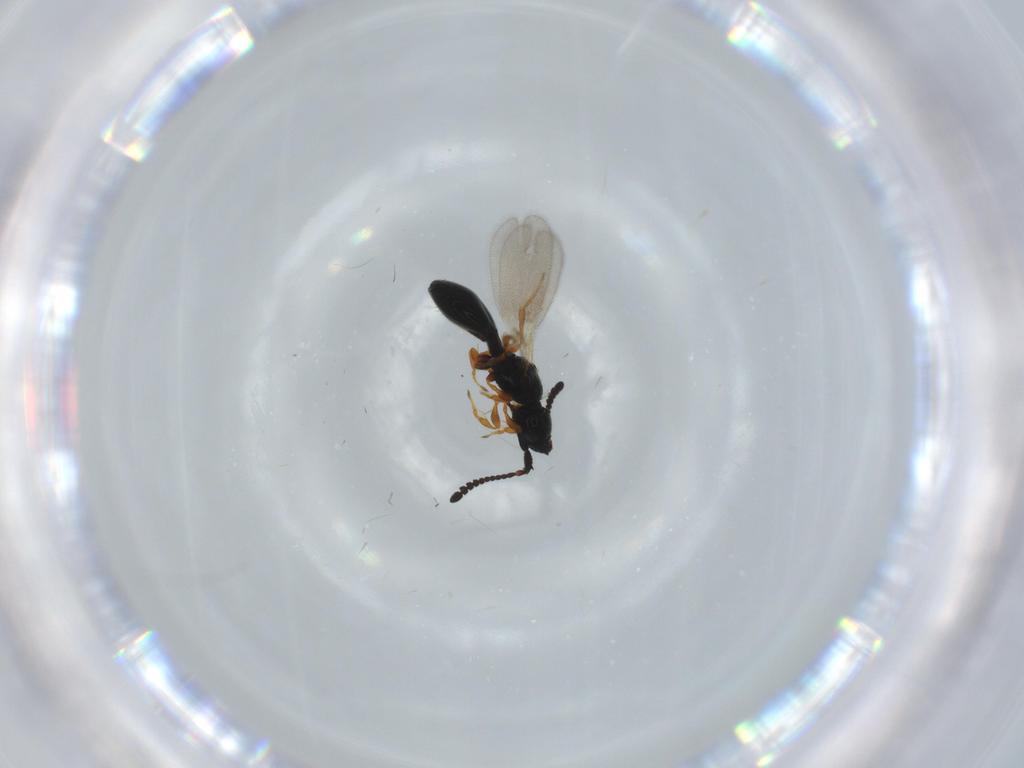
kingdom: Animalia
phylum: Arthropoda
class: Insecta
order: Hymenoptera
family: Diapriidae
